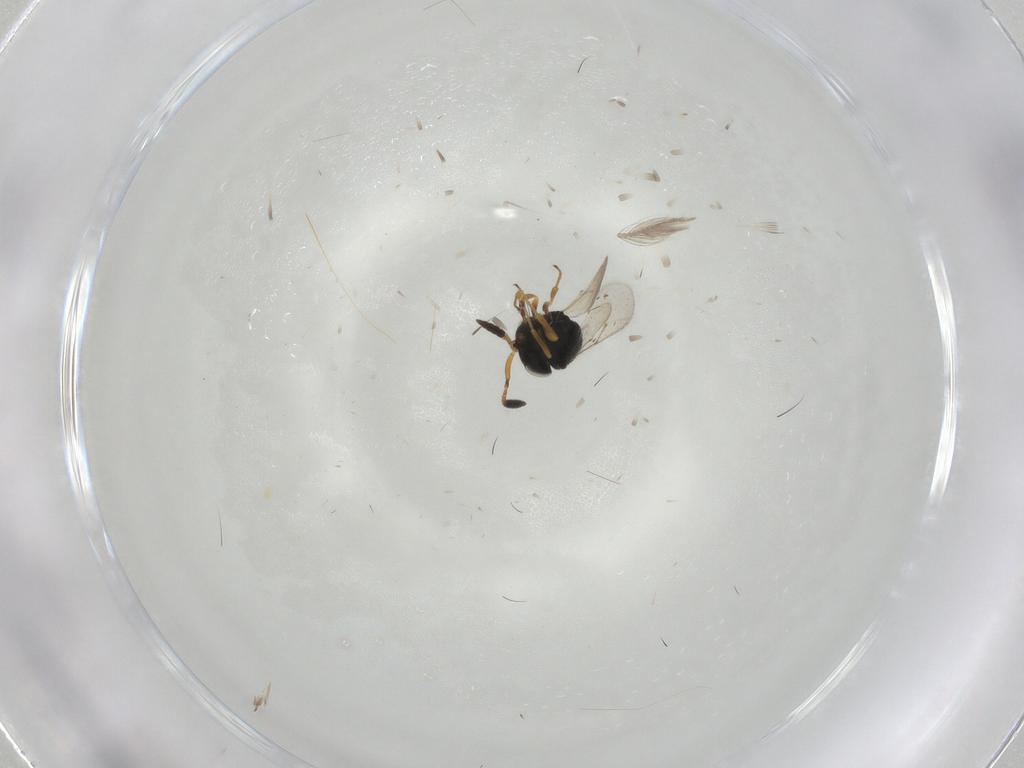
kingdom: Animalia
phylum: Arthropoda
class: Insecta
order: Hymenoptera
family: Scelionidae
